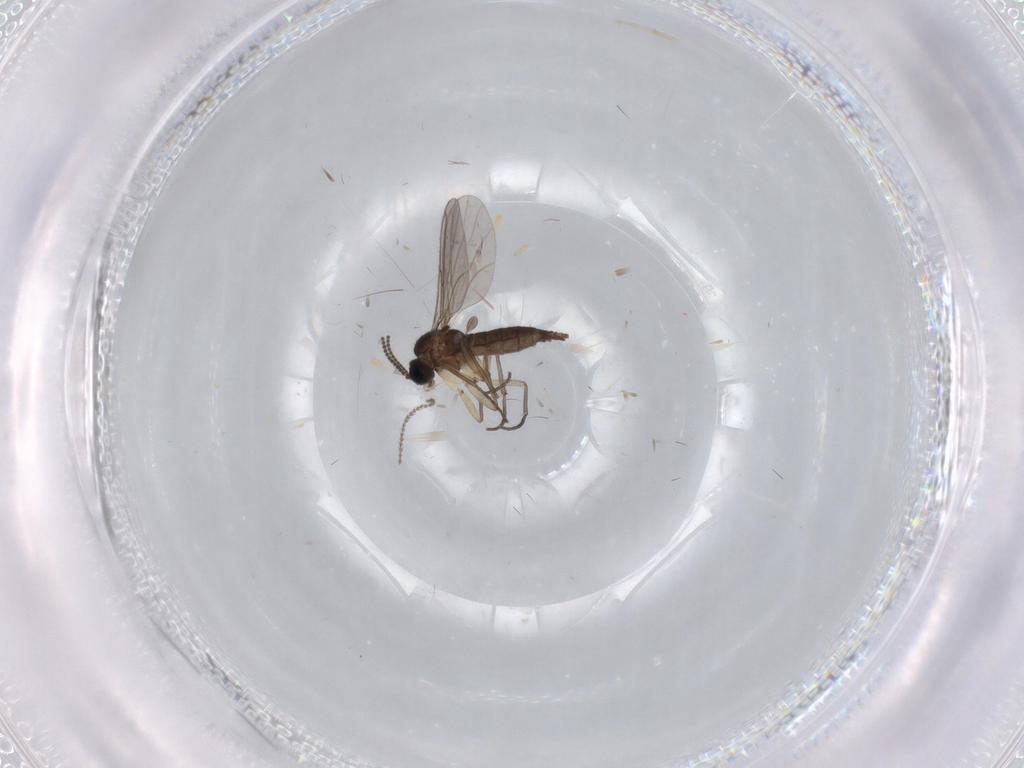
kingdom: Animalia
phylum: Arthropoda
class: Insecta
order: Diptera
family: Sciaridae
